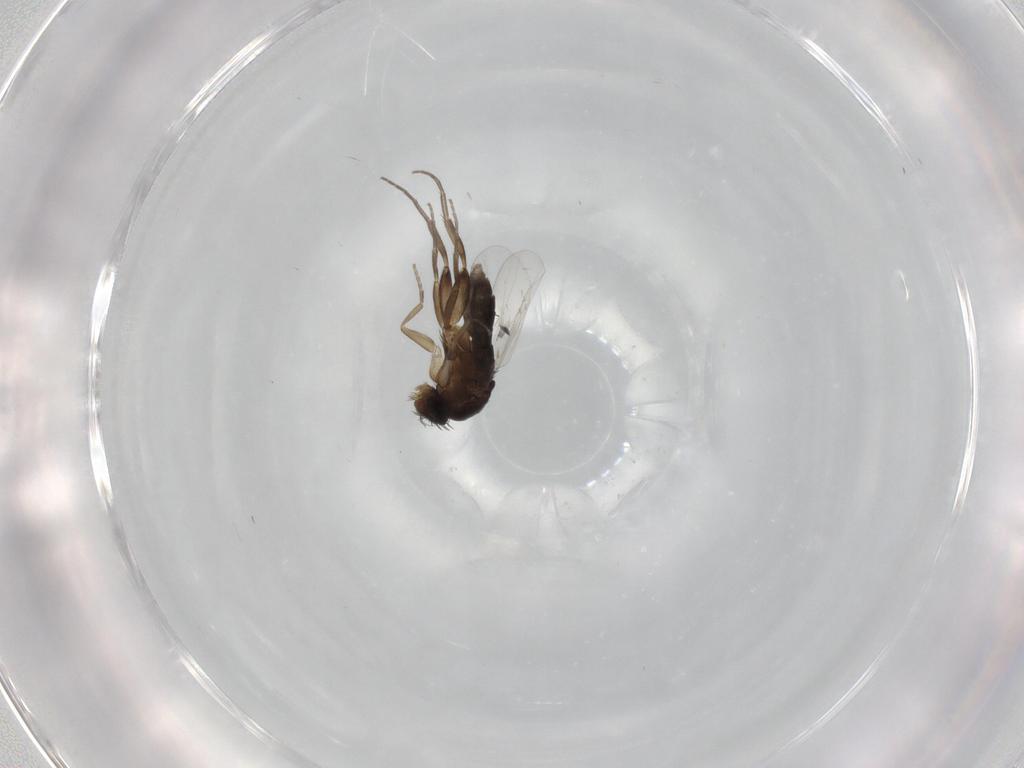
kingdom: Animalia
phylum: Arthropoda
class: Insecta
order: Diptera
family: Phoridae
